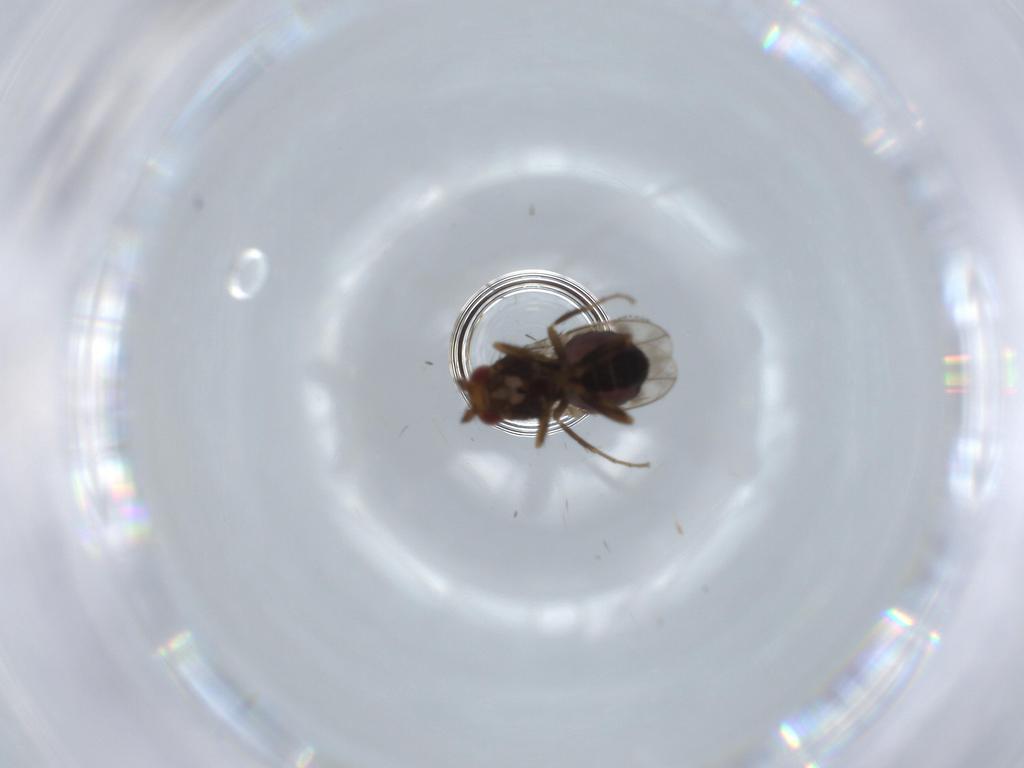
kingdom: Animalia
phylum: Arthropoda
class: Insecta
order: Diptera
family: Sphaeroceridae
